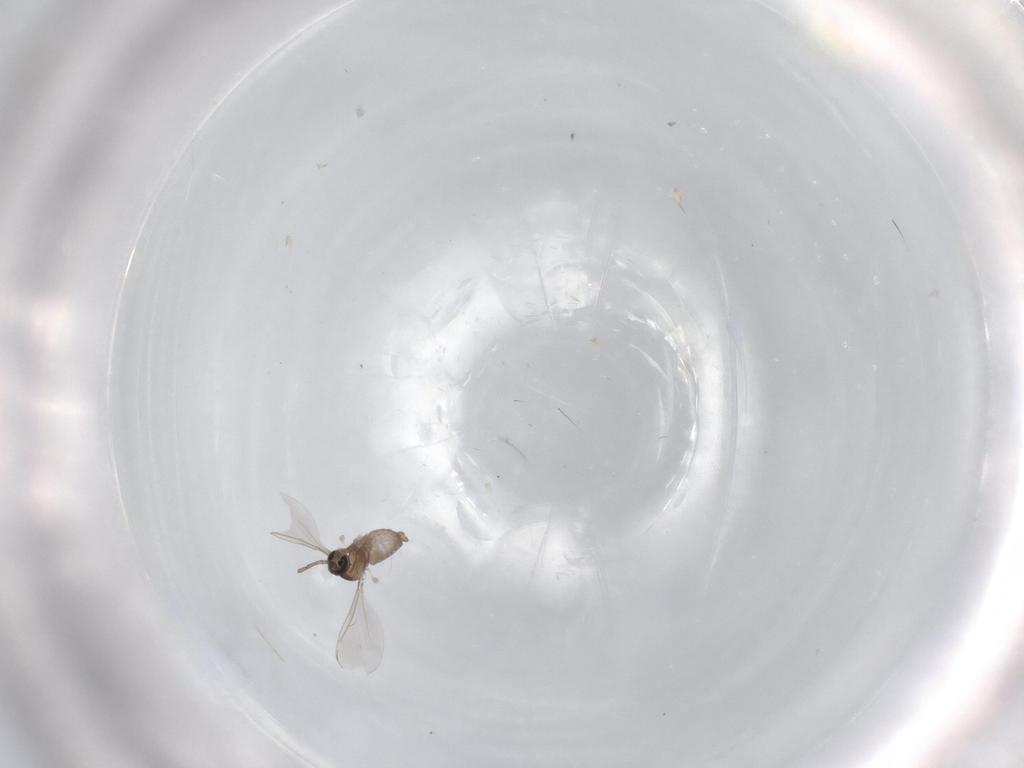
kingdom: Animalia
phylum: Arthropoda
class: Insecta
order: Diptera
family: Cecidomyiidae
